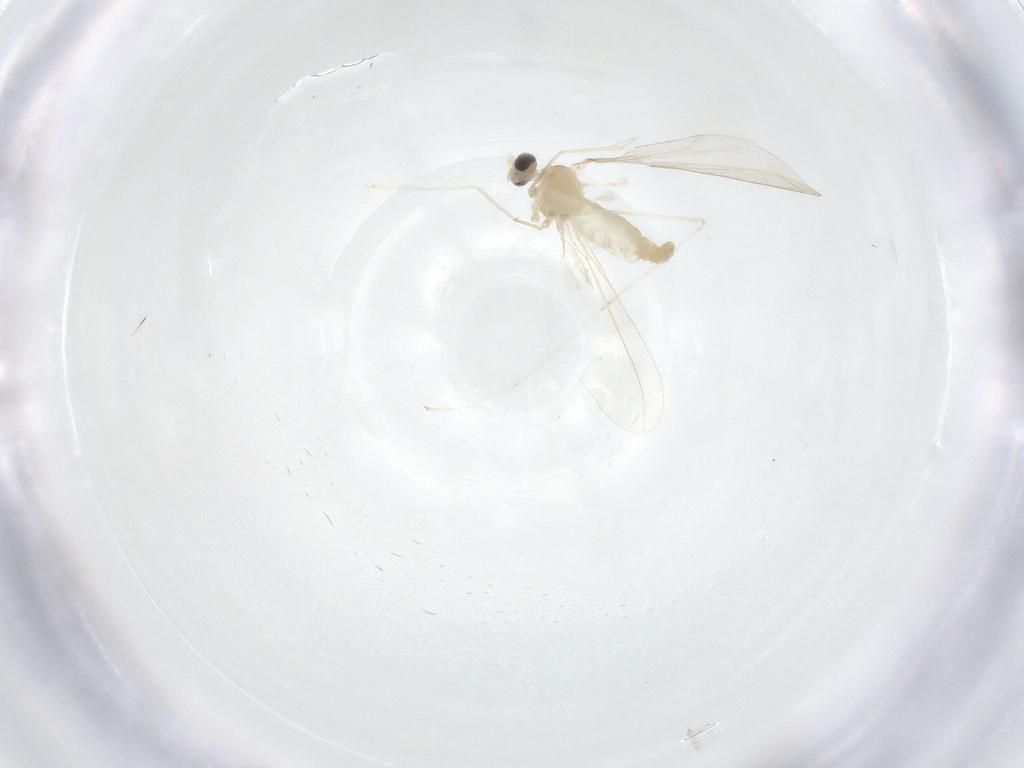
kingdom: Animalia
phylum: Arthropoda
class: Insecta
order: Diptera
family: Cecidomyiidae
